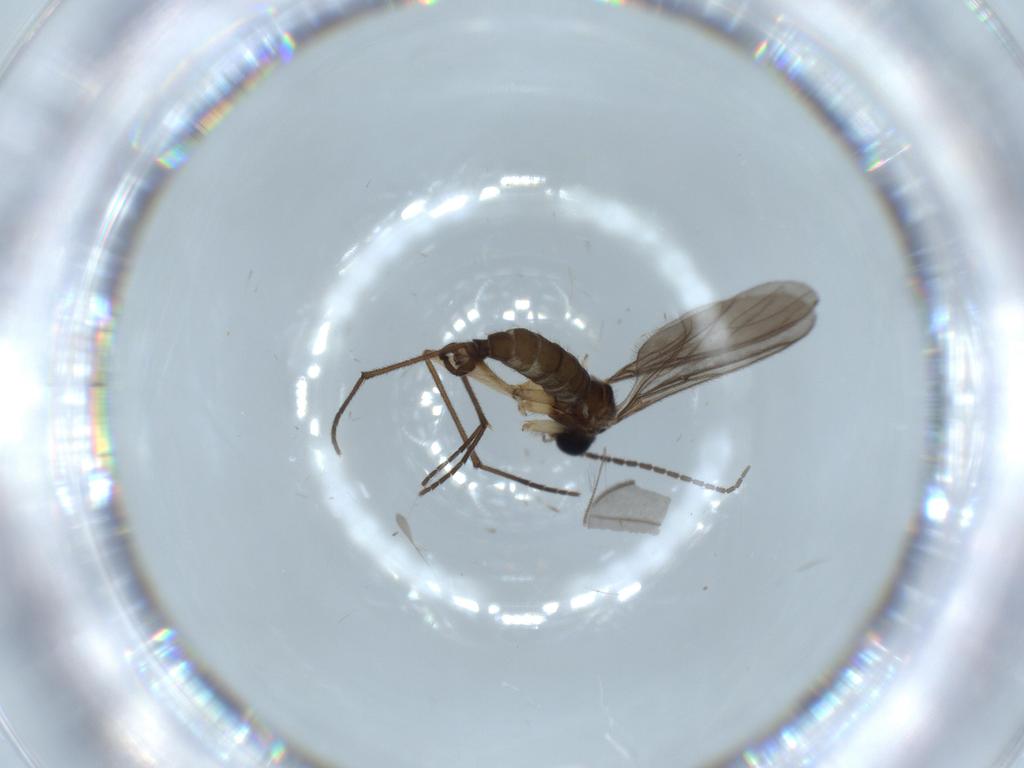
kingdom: Animalia
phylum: Arthropoda
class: Insecta
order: Diptera
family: Chironomidae
